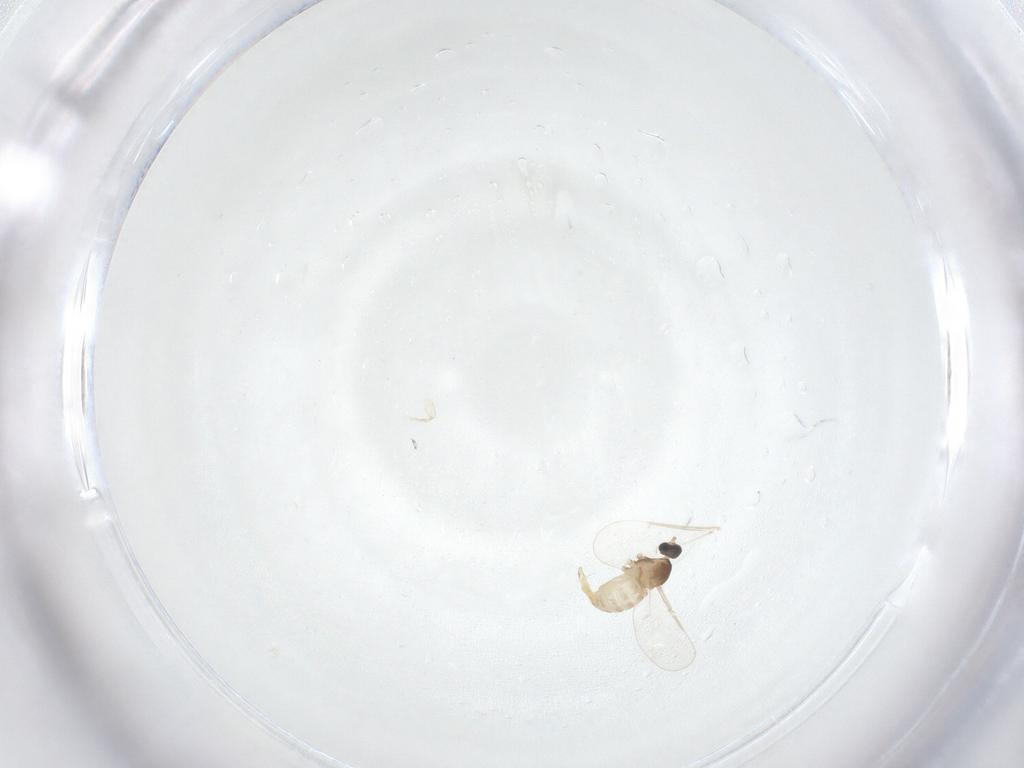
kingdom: Animalia
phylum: Arthropoda
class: Insecta
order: Diptera
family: Cecidomyiidae
